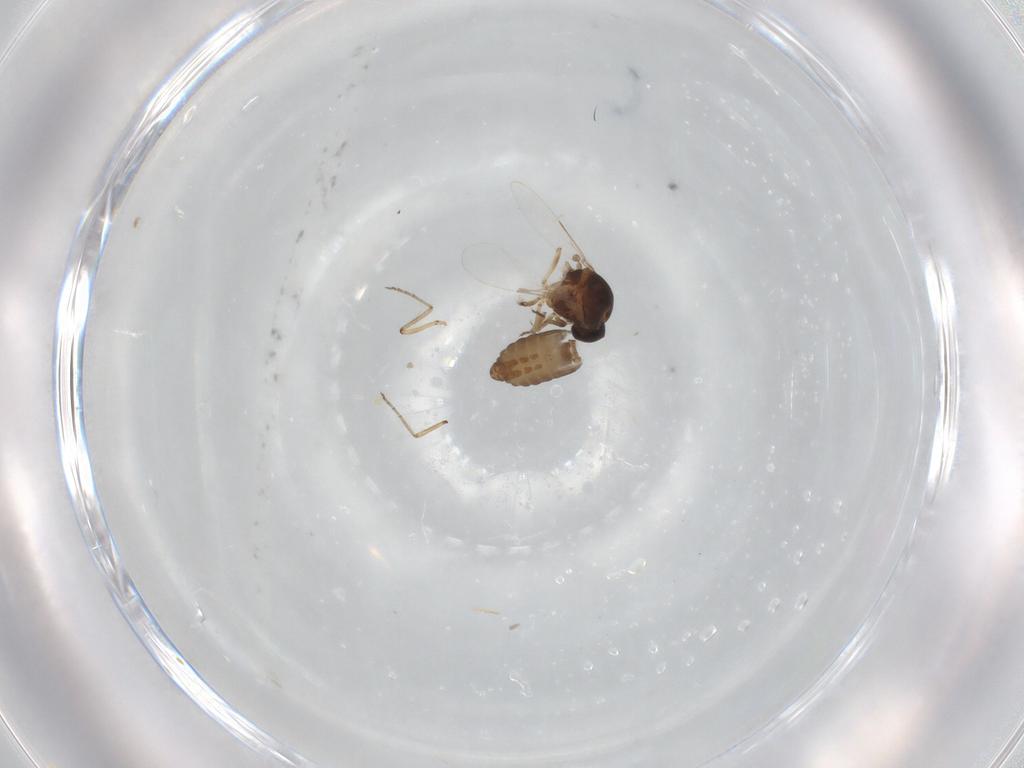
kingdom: Animalia
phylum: Arthropoda
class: Insecta
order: Diptera
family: Ceratopogonidae
